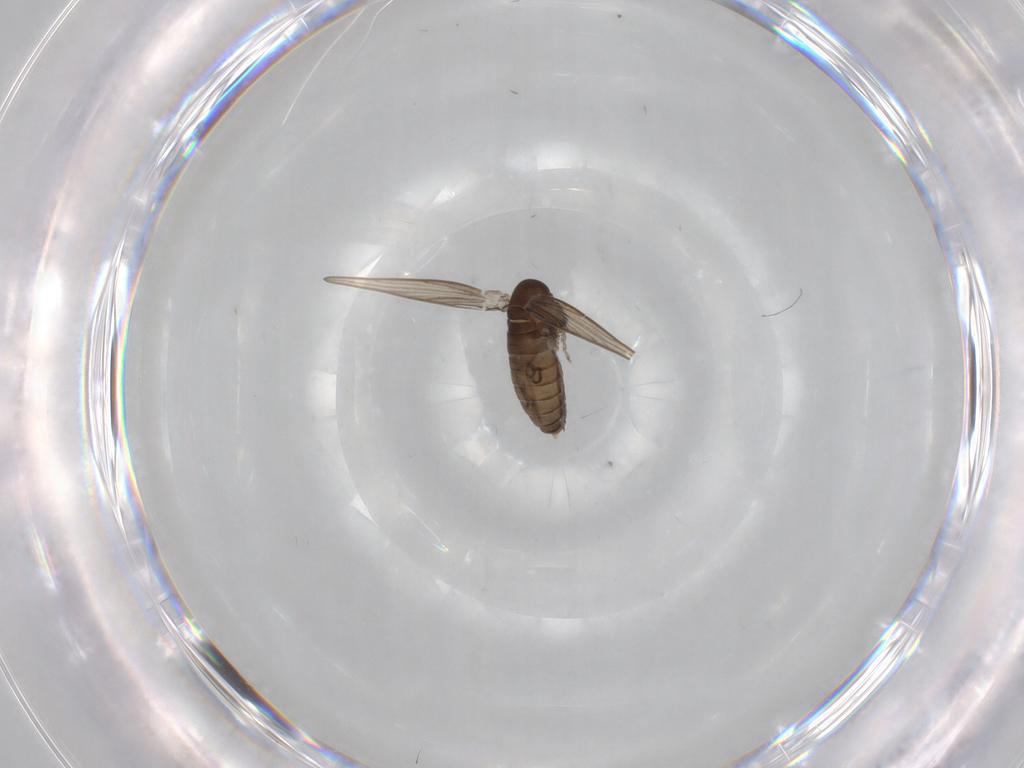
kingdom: Animalia
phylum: Arthropoda
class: Insecta
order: Diptera
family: Psychodidae
